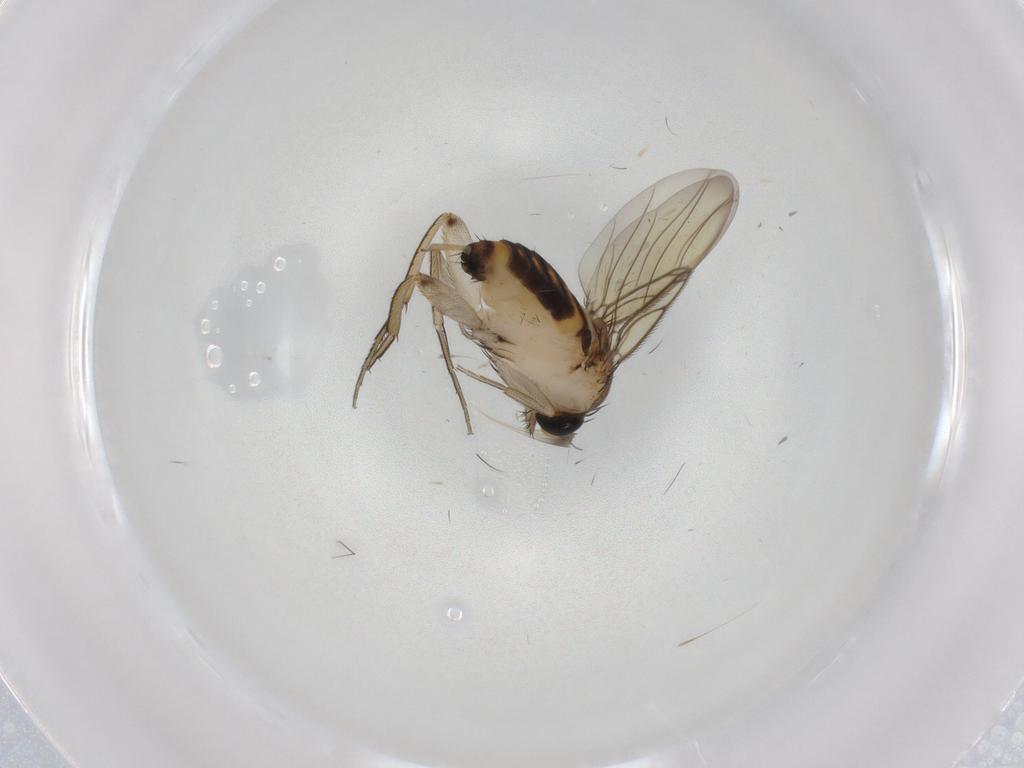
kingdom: Animalia
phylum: Arthropoda
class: Insecta
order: Diptera
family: Phoridae
